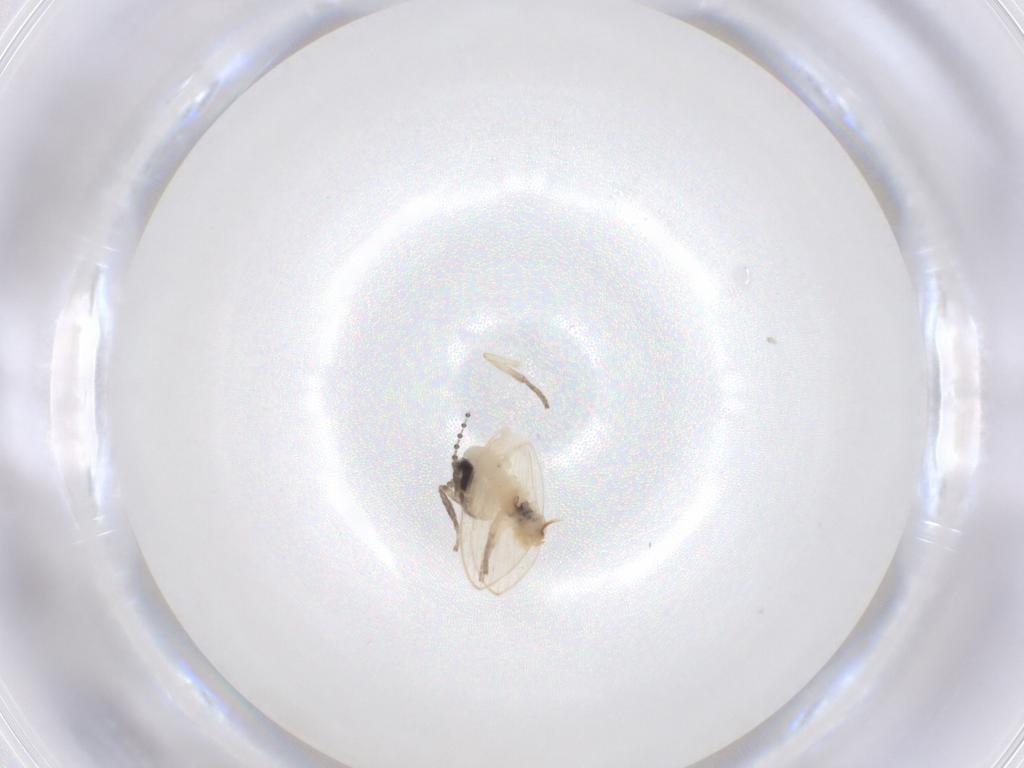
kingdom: Animalia
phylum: Arthropoda
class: Insecta
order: Diptera
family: Psychodidae
